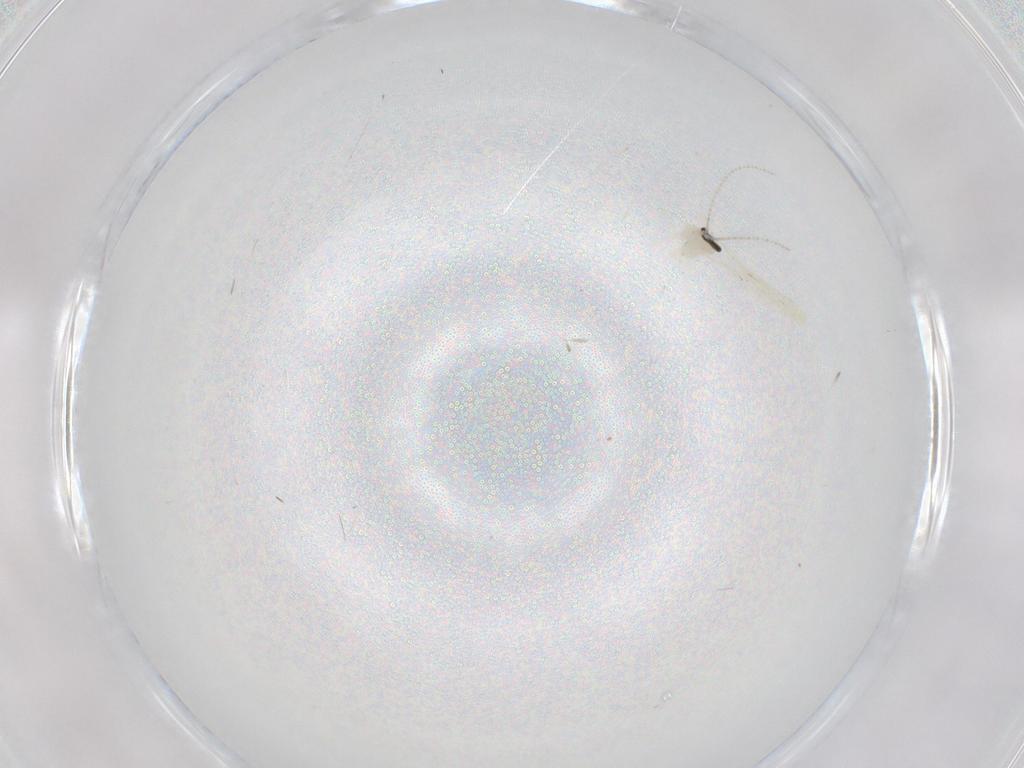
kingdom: Animalia
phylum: Arthropoda
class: Insecta
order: Diptera
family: Cecidomyiidae
